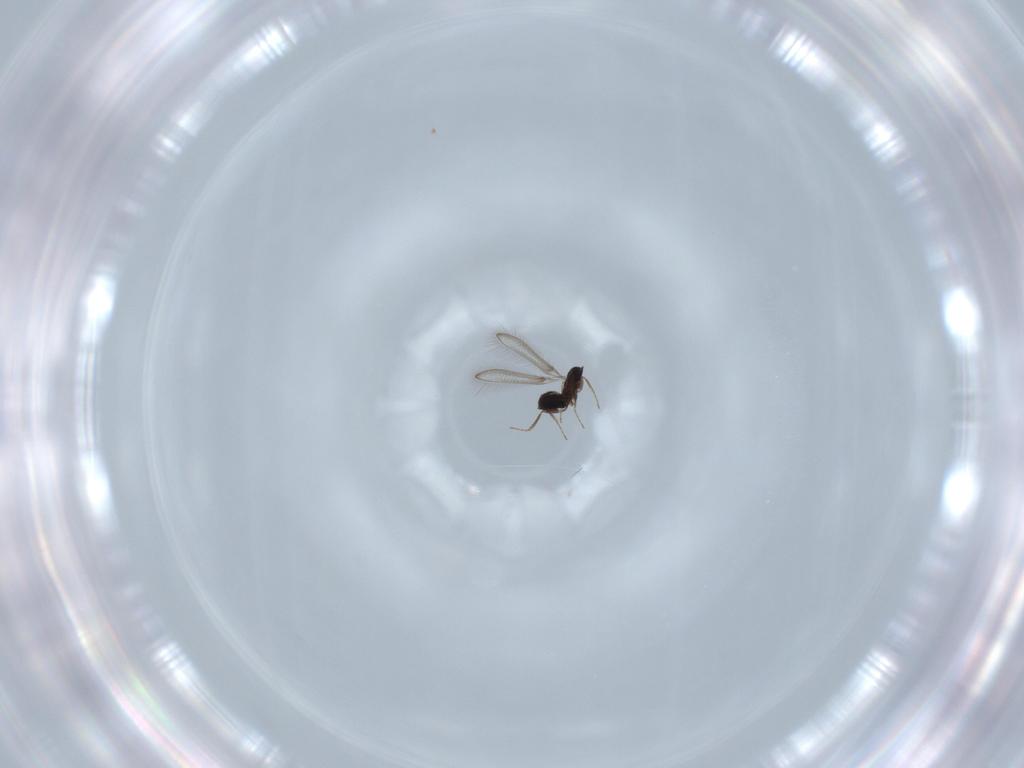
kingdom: Animalia
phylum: Arthropoda
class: Insecta
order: Hymenoptera
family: Mymaridae
